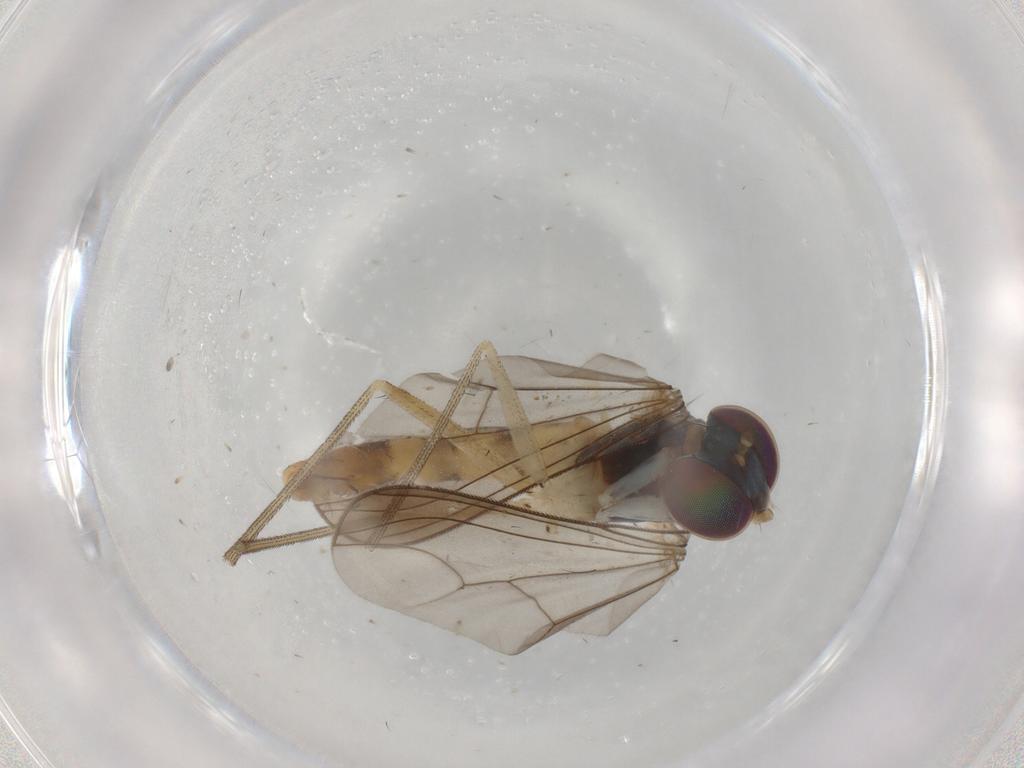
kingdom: Animalia
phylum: Arthropoda
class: Insecta
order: Diptera
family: Dolichopodidae
